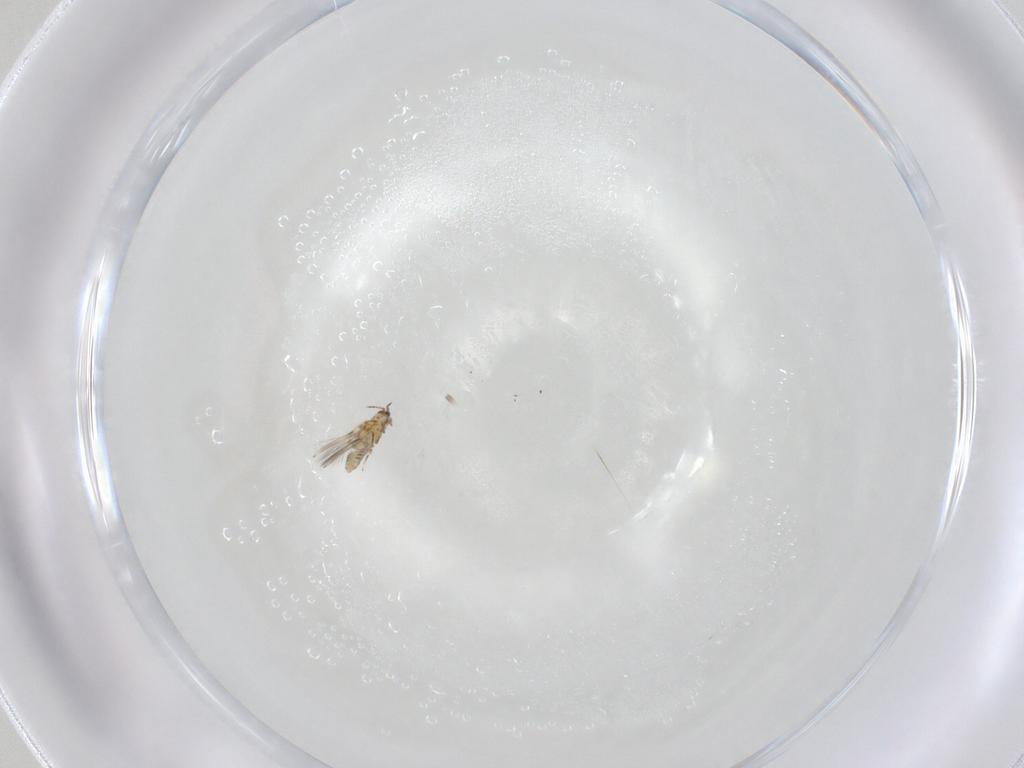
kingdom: Animalia
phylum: Arthropoda
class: Insecta
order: Thysanoptera
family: Thripidae
